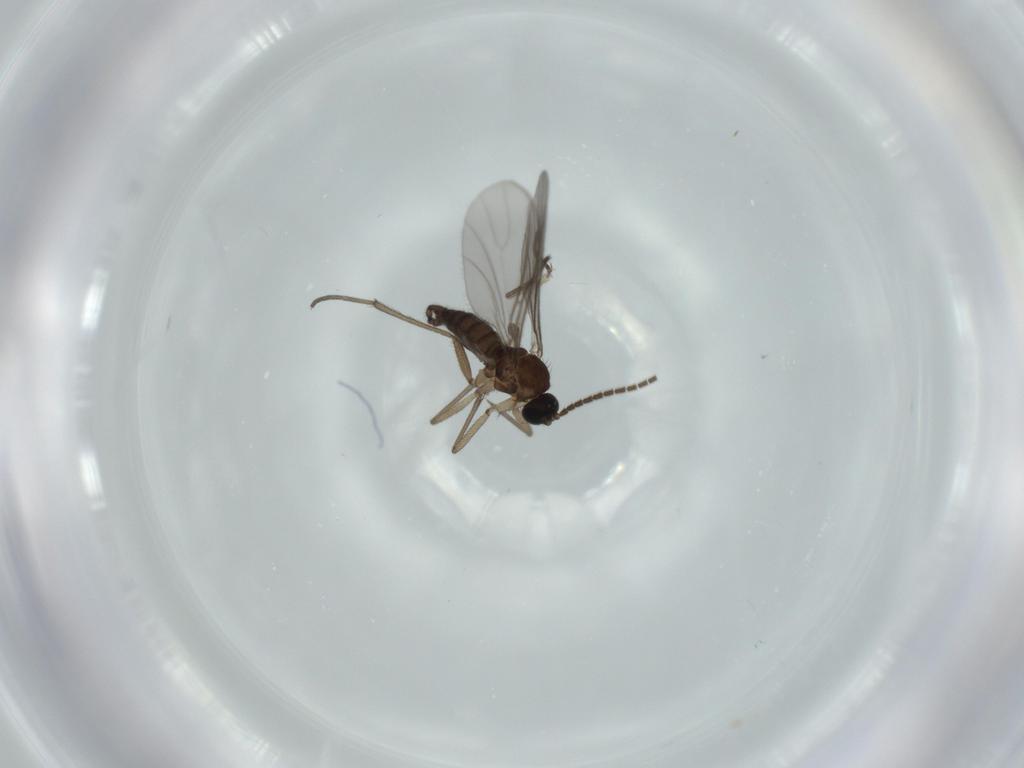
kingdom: Animalia
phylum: Arthropoda
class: Insecta
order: Diptera
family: Sciaridae
